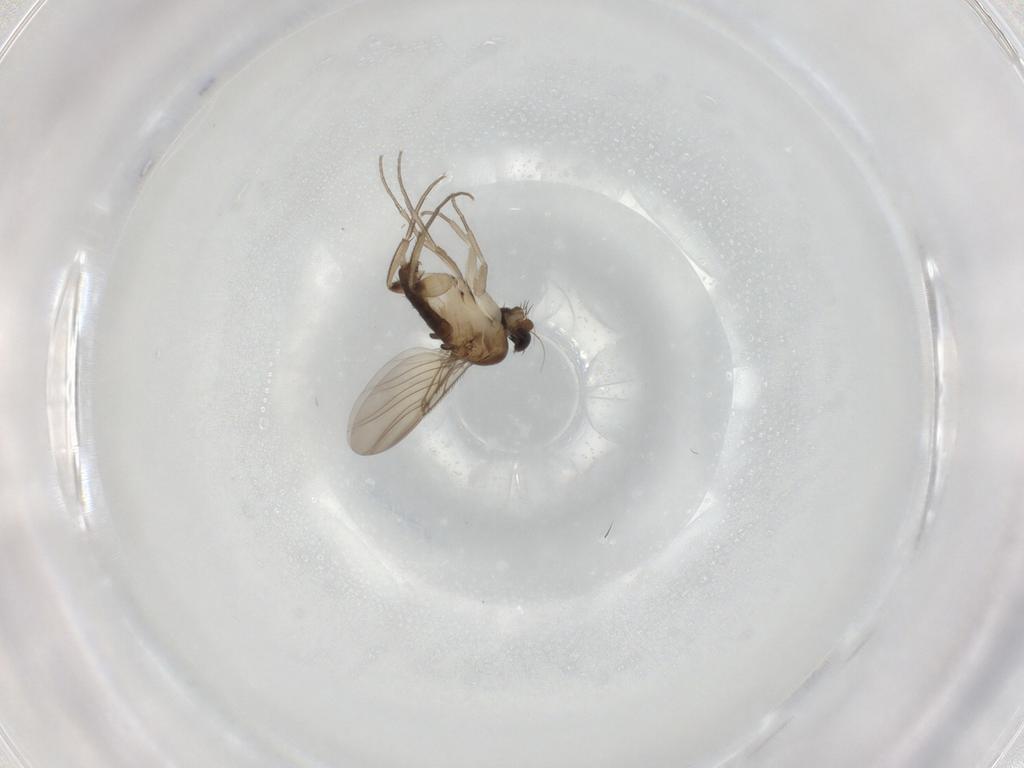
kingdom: Animalia
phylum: Arthropoda
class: Insecta
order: Diptera
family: Phoridae
